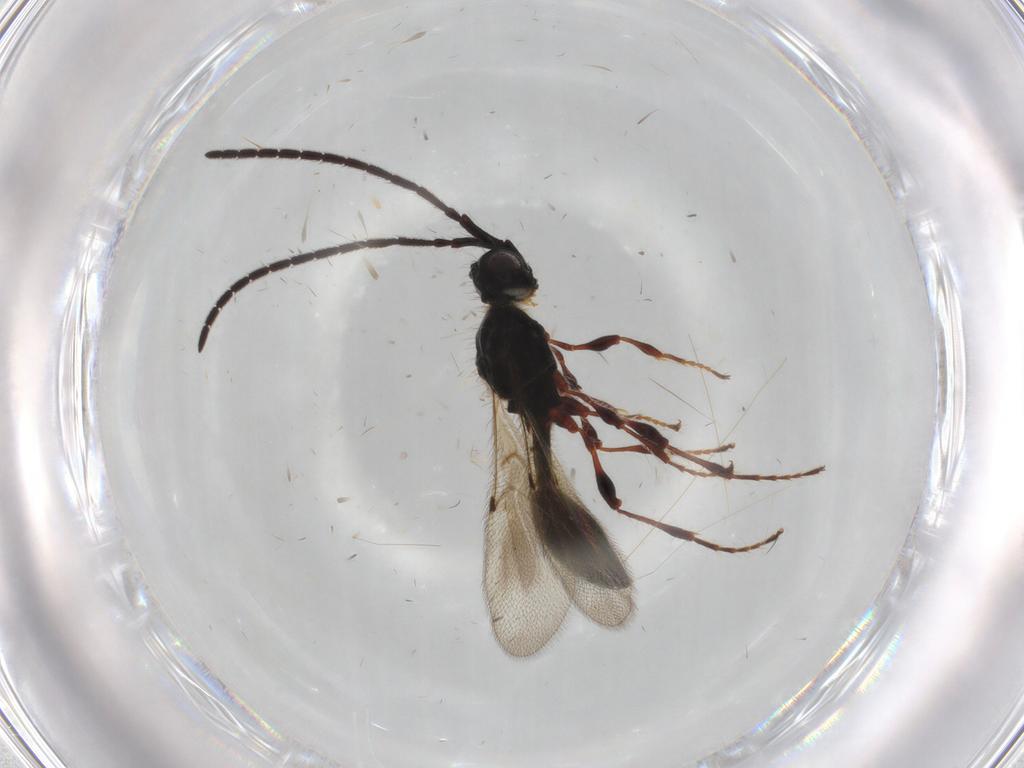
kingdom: Animalia
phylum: Arthropoda
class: Insecta
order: Hymenoptera
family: Diapriidae
